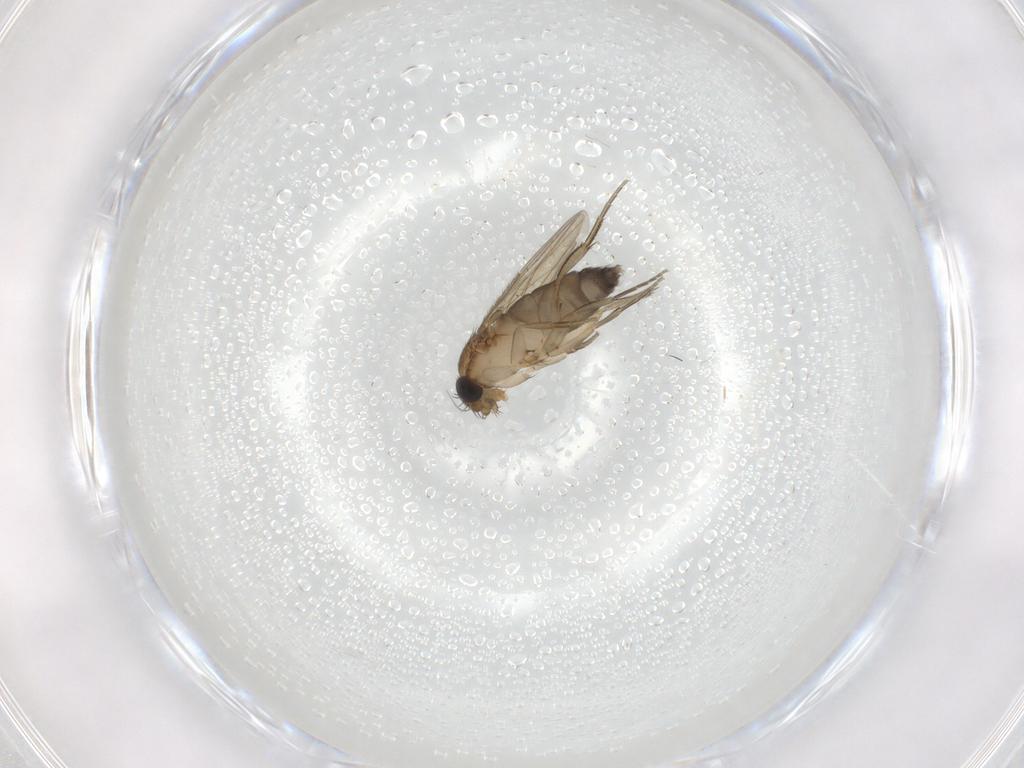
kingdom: Animalia
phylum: Arthropoda
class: Insecta
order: Diptera
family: Phoridae
